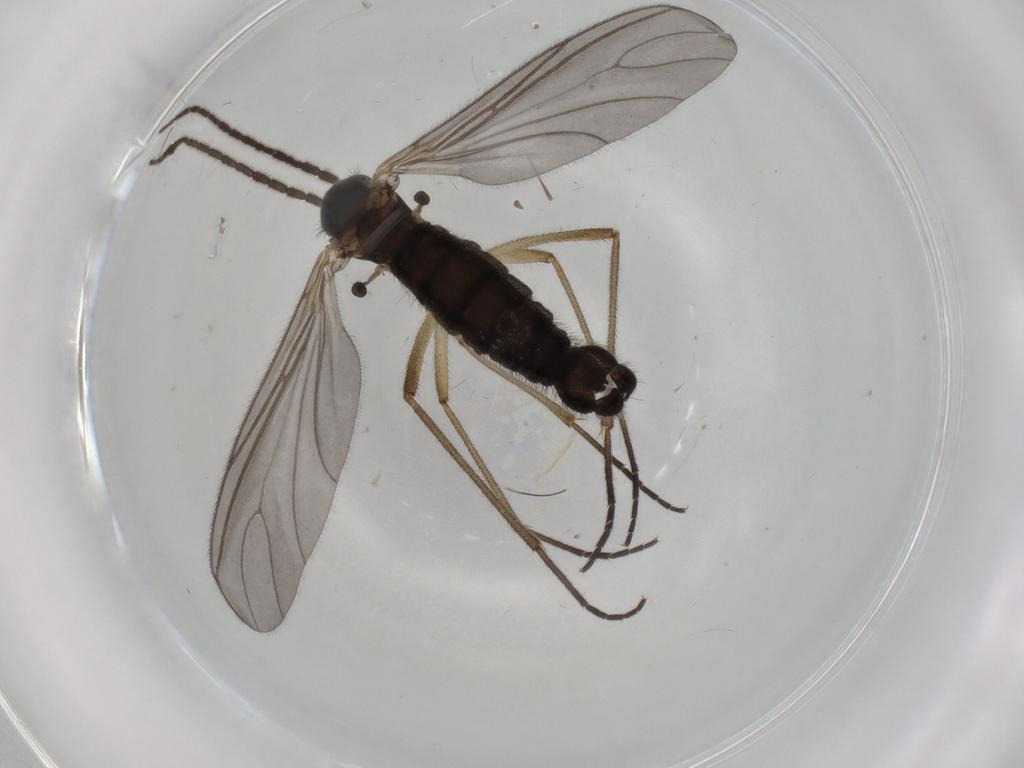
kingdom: Animalia
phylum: Arthropoda
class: Insecta
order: Diptera
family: Sciaridae
